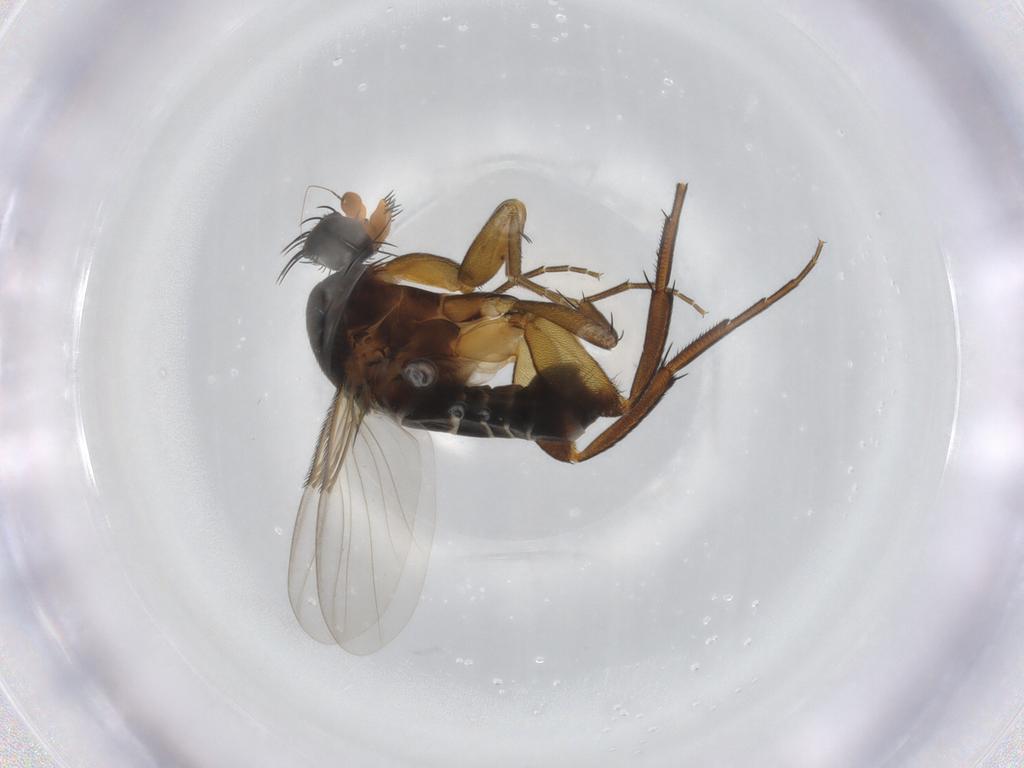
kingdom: Animalia
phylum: Arthropoda
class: Insecta
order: Diptera
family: Phoridae
